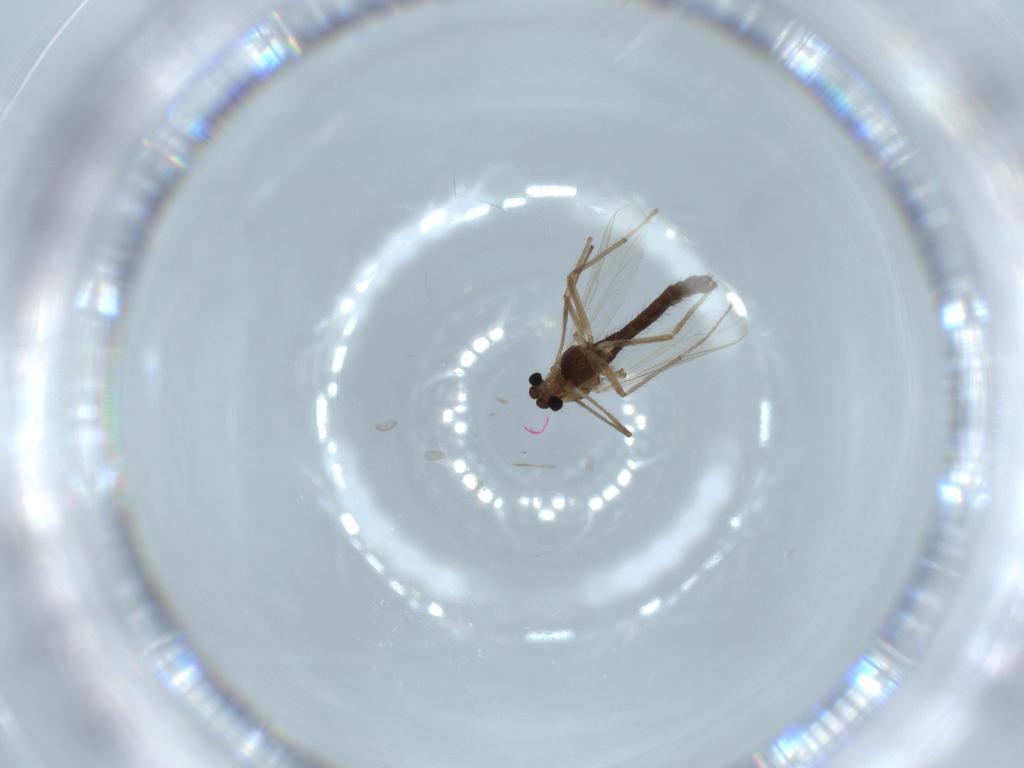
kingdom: Animalia
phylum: Arthropoda
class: Insecta
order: Diptera
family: Chironomidae
